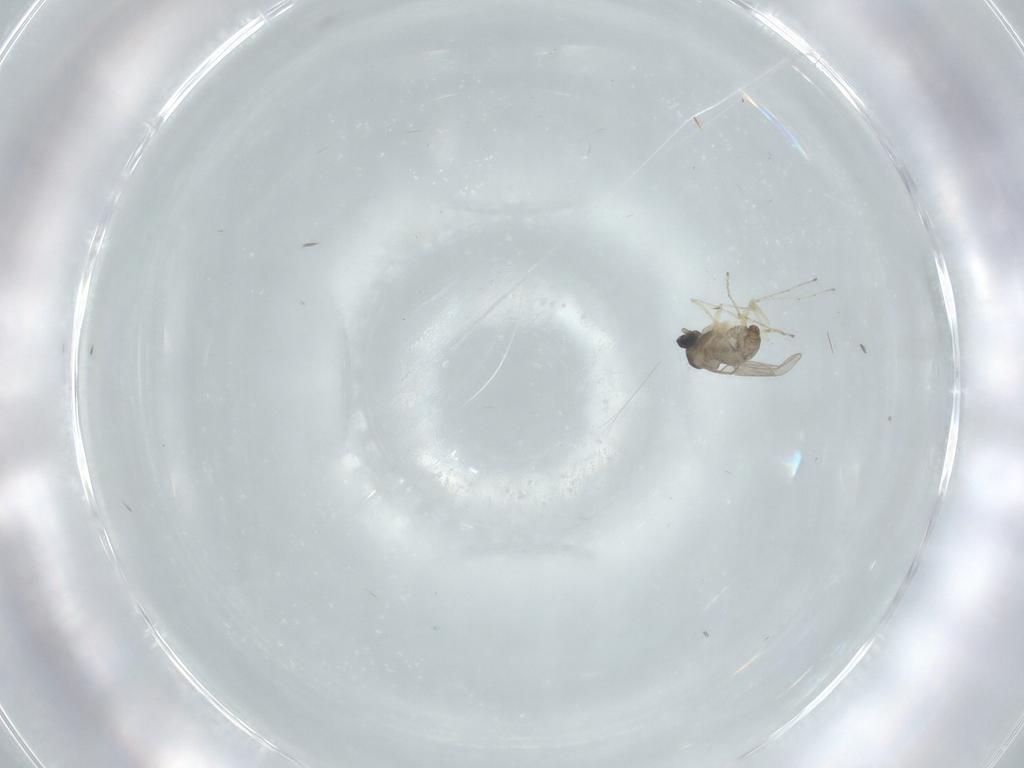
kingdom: Animalia
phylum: Arthropoda
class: Insecta
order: Diptera
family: Cecidomyiidae
